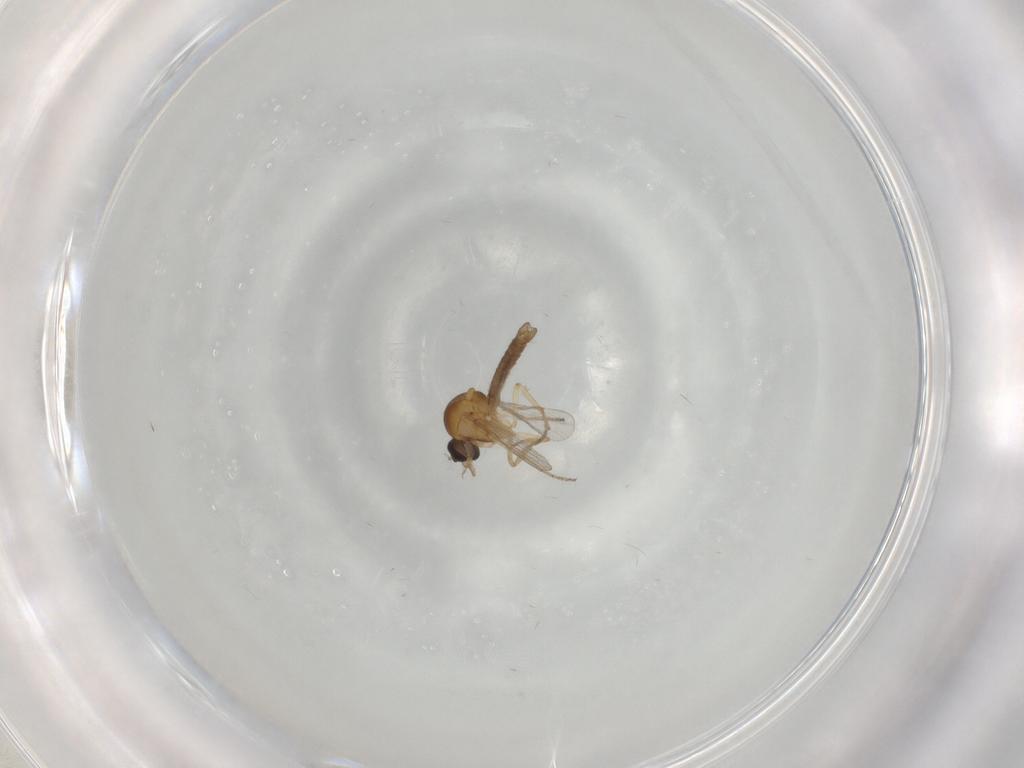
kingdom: Animalia
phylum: Arthropoda
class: Insecta
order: Diptera
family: Ceratopogonidae
